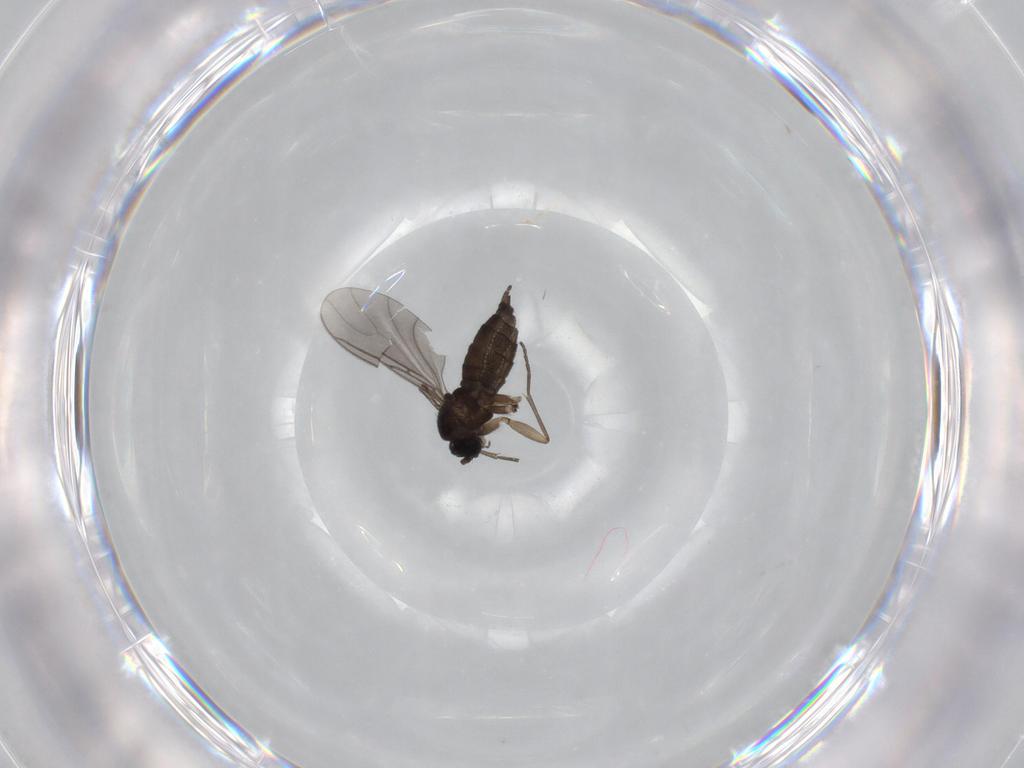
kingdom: Animalia
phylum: Arthropoda
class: Insecta
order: Diptera
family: Sciaridae
